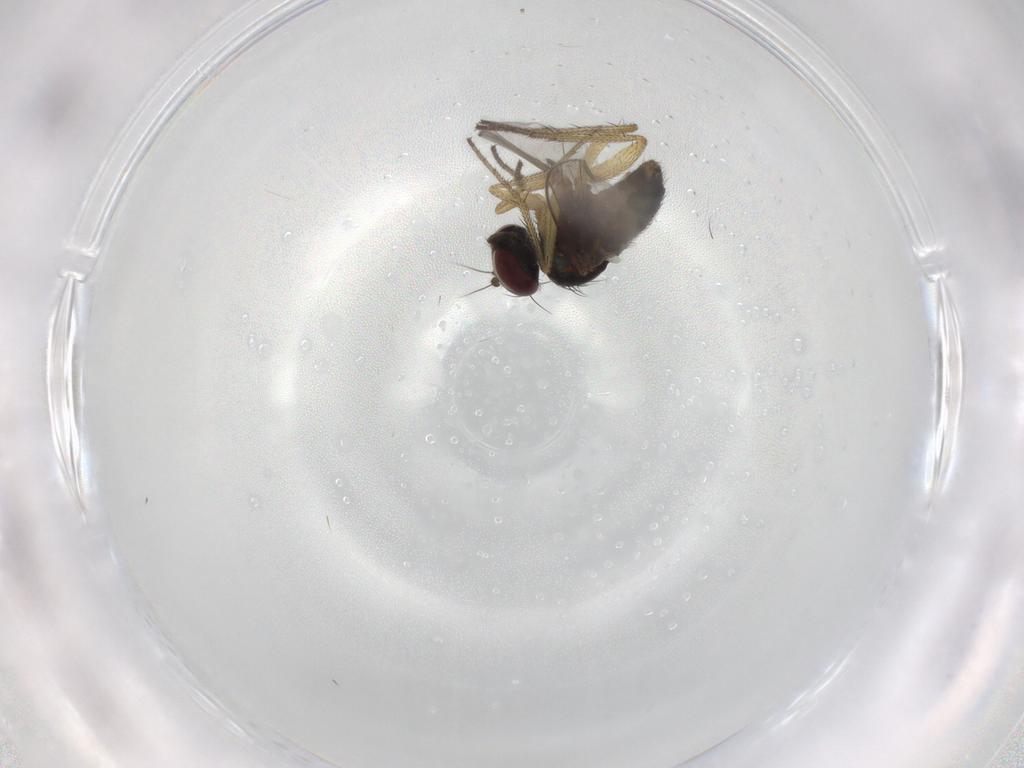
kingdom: Animalia
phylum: Arthropoda
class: Insecta
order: Diptera
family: Dolichopodidae
